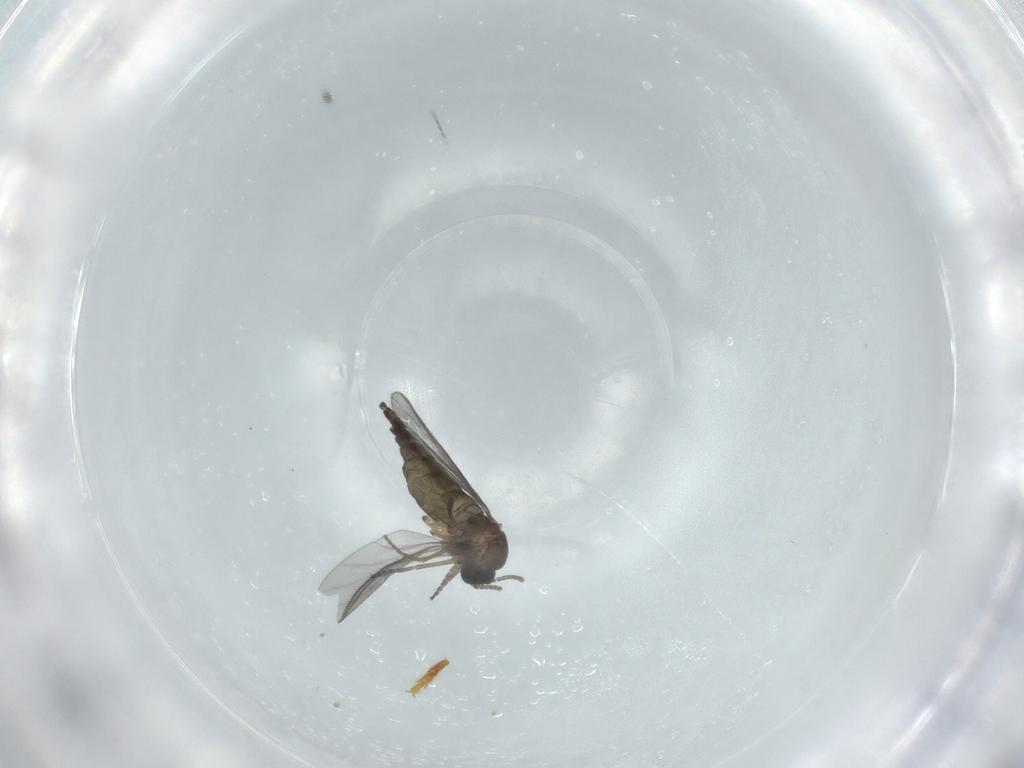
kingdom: Animalia
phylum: Arthropoda
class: Insecta
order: Diptera
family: Sciaridae
